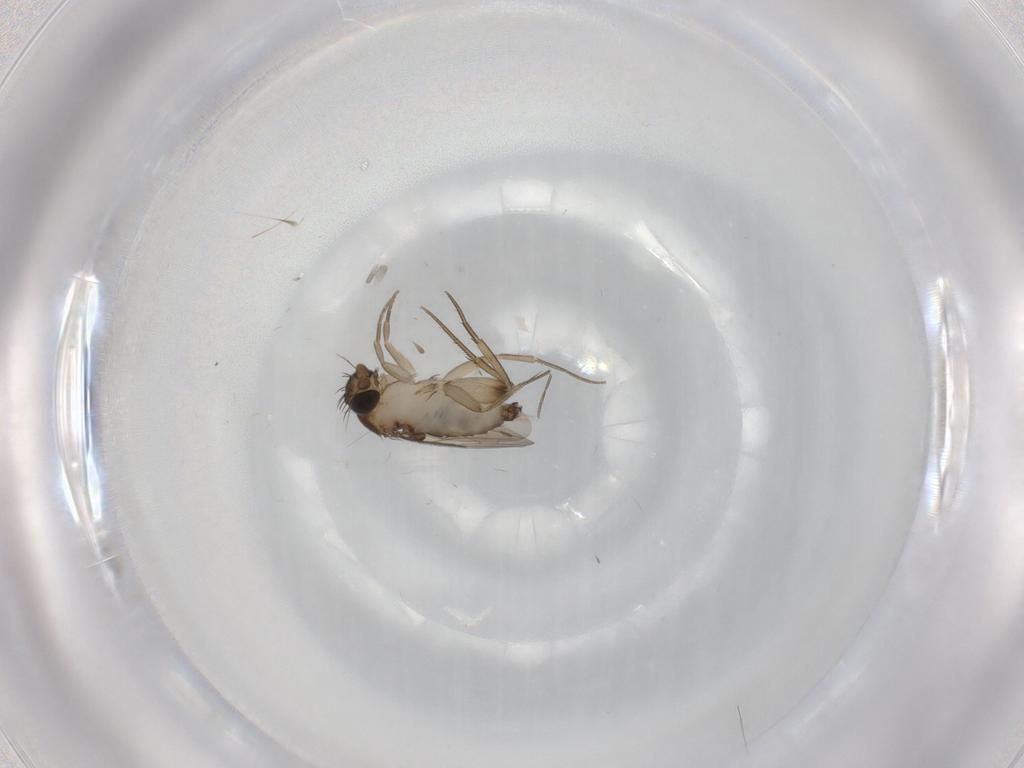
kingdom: Animalia
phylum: Arthropoda
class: Insecta
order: Diptera
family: Phoridae
